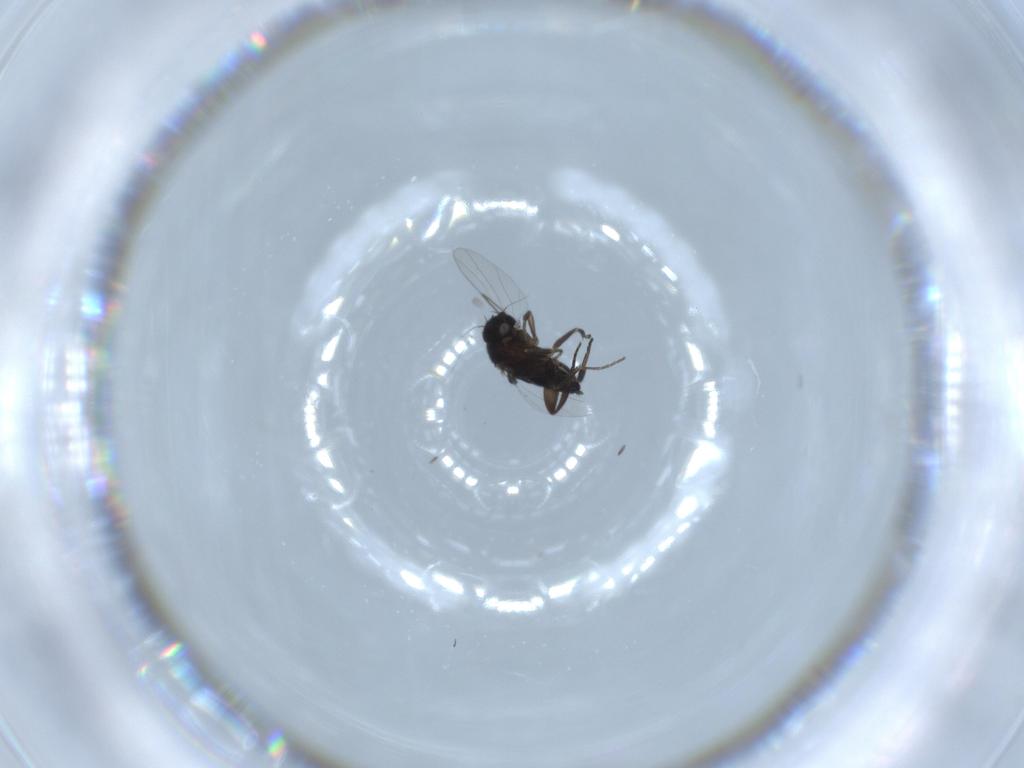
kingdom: Animalia
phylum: Arthropoda
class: Insecta
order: Diptera
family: Phoridae
